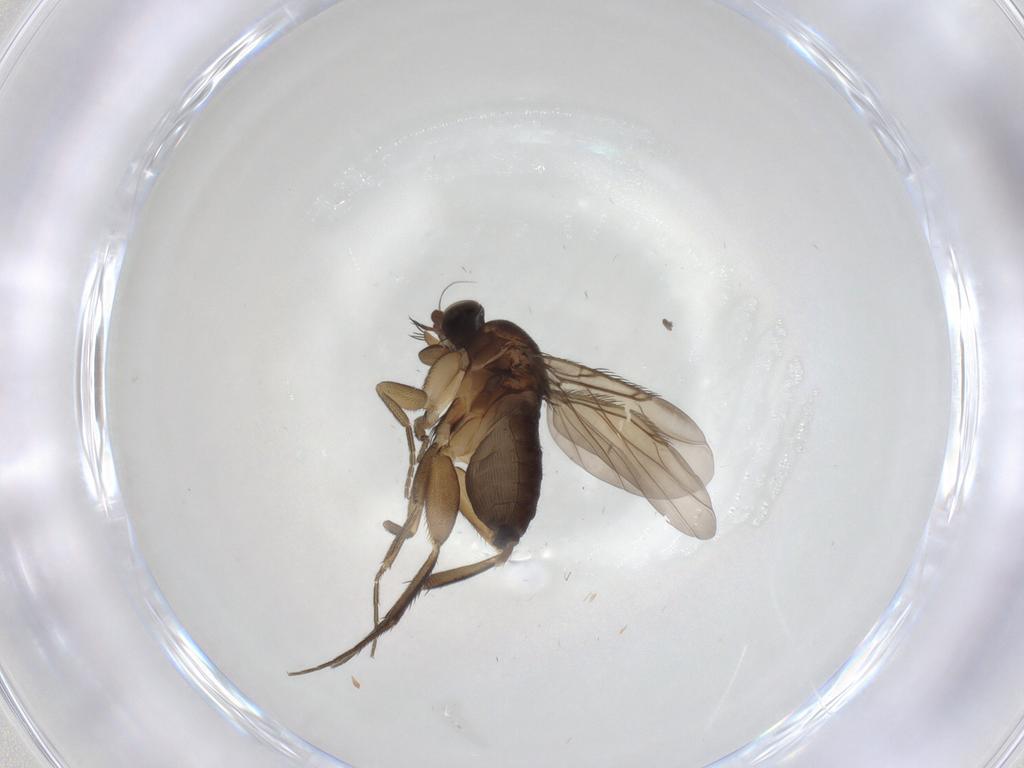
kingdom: Animalia
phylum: Arthropoda
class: Insecta
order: Diptera
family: Phoridae
